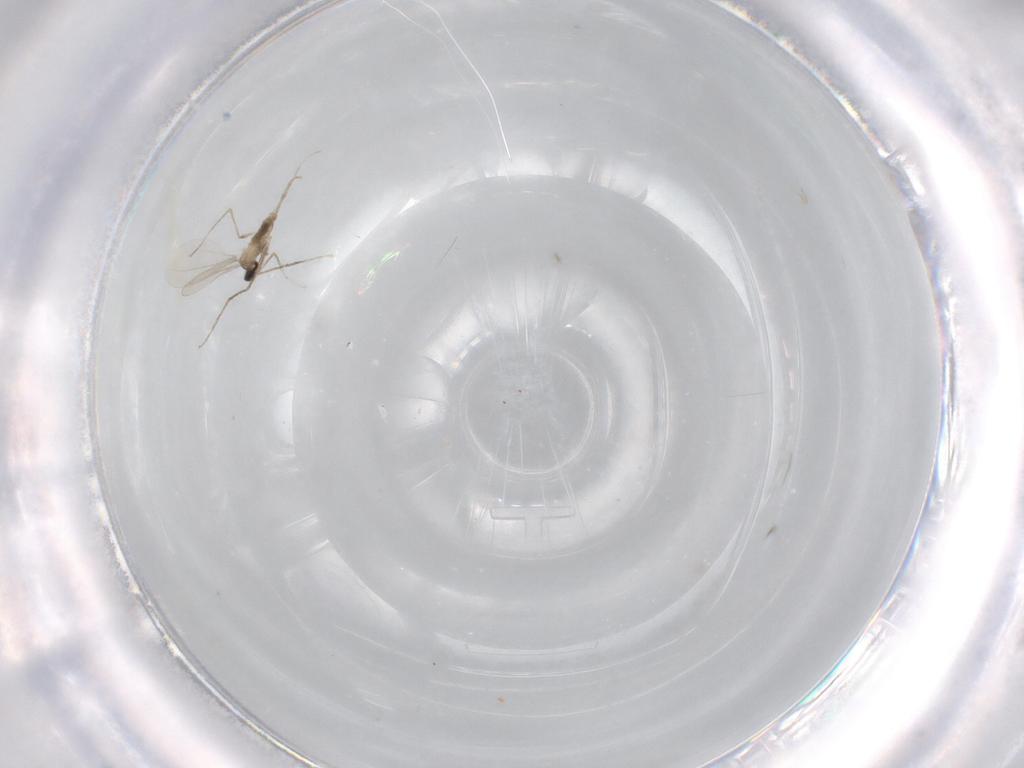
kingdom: Animalia
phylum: Arthropoda
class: Insecta
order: Diptera
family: Cecidomyiidae
